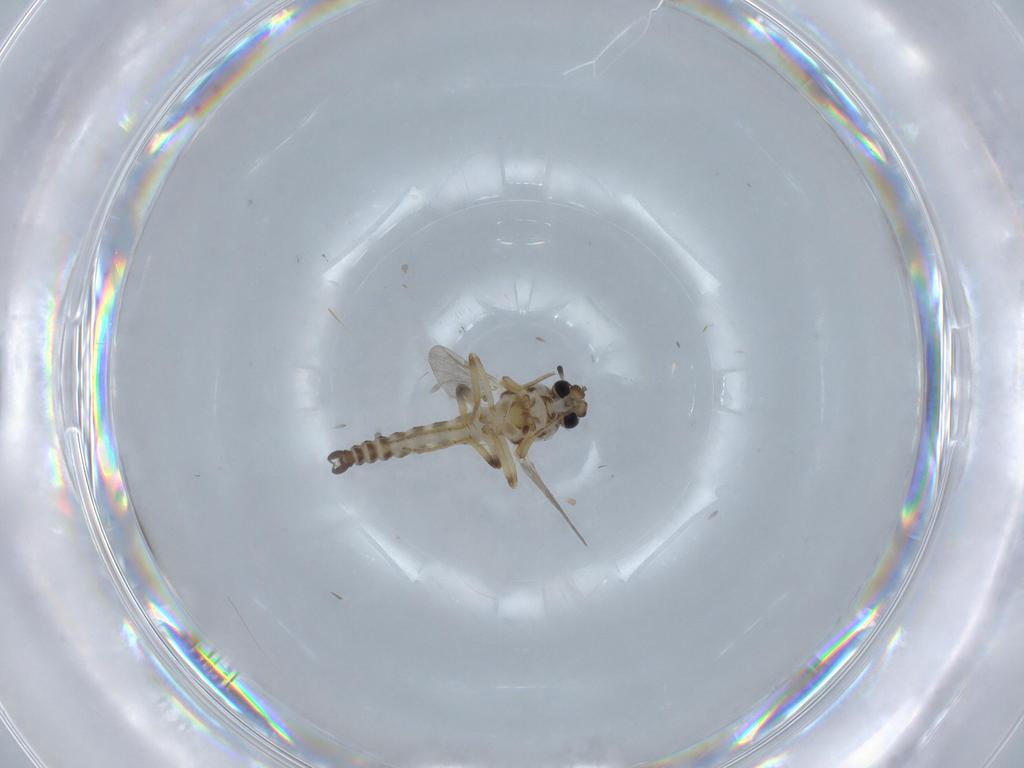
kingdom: Animalia
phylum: Arthropoda
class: Insecta
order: Diptera
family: Ceratopogonidae
